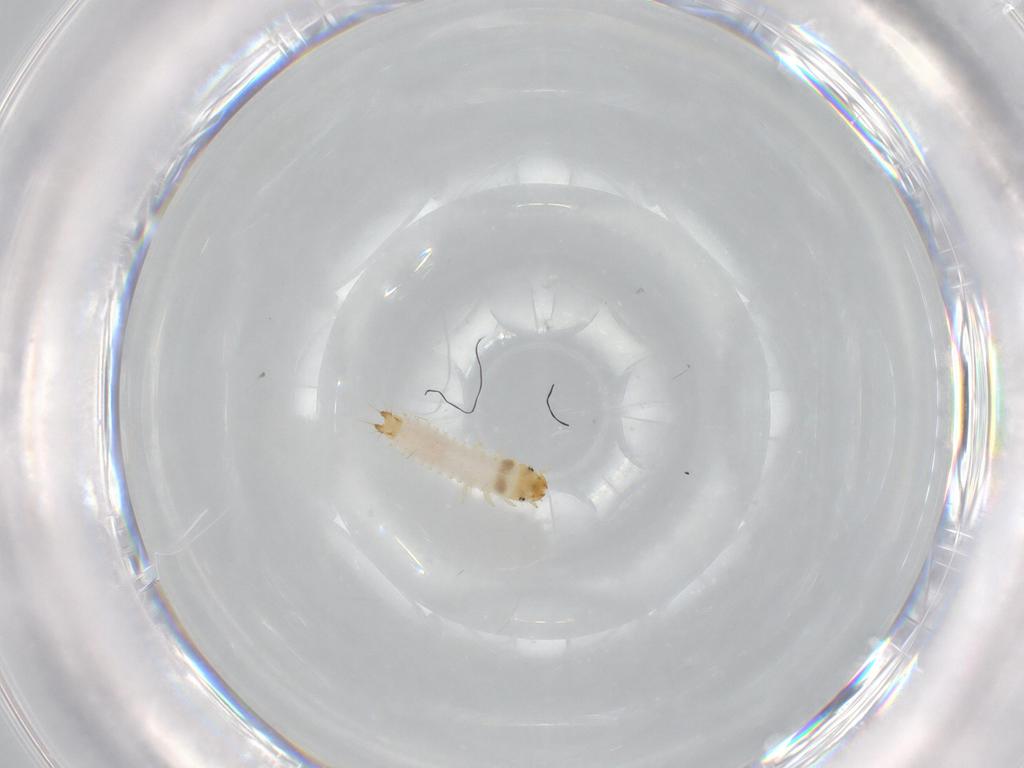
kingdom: Animalia
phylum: Arthropoda
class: Insecta
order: Coleoptera
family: Nitidulidae
